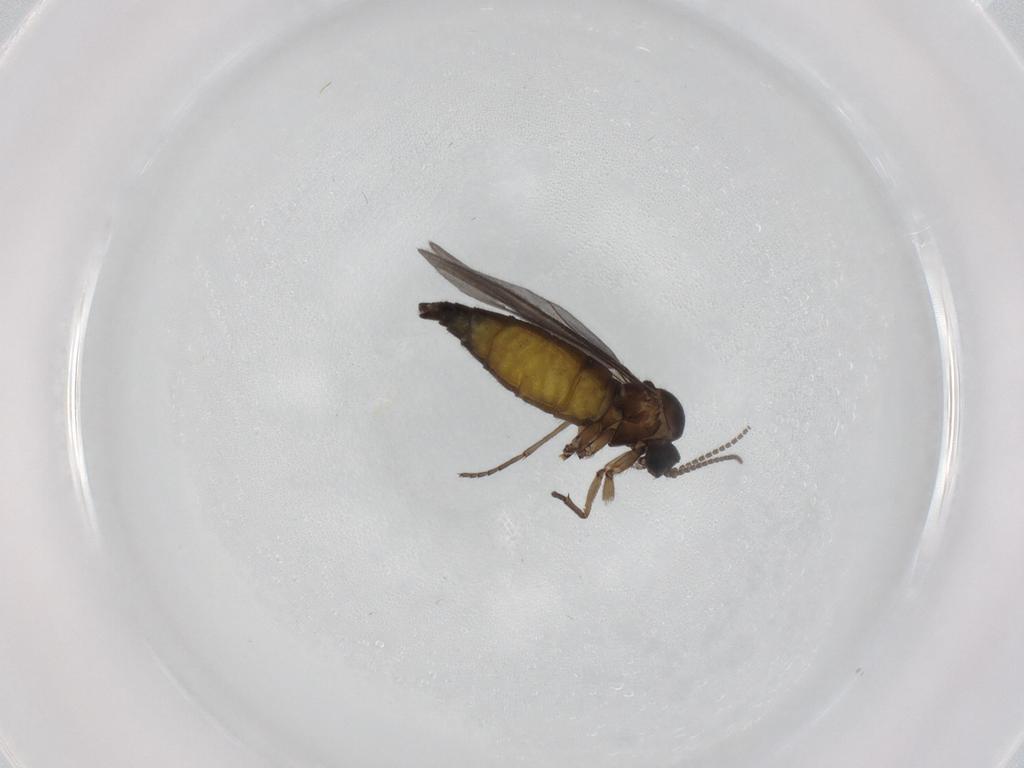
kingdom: Animalia
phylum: Arthropoda
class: Insecta
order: Diptera
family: Sciaridae
